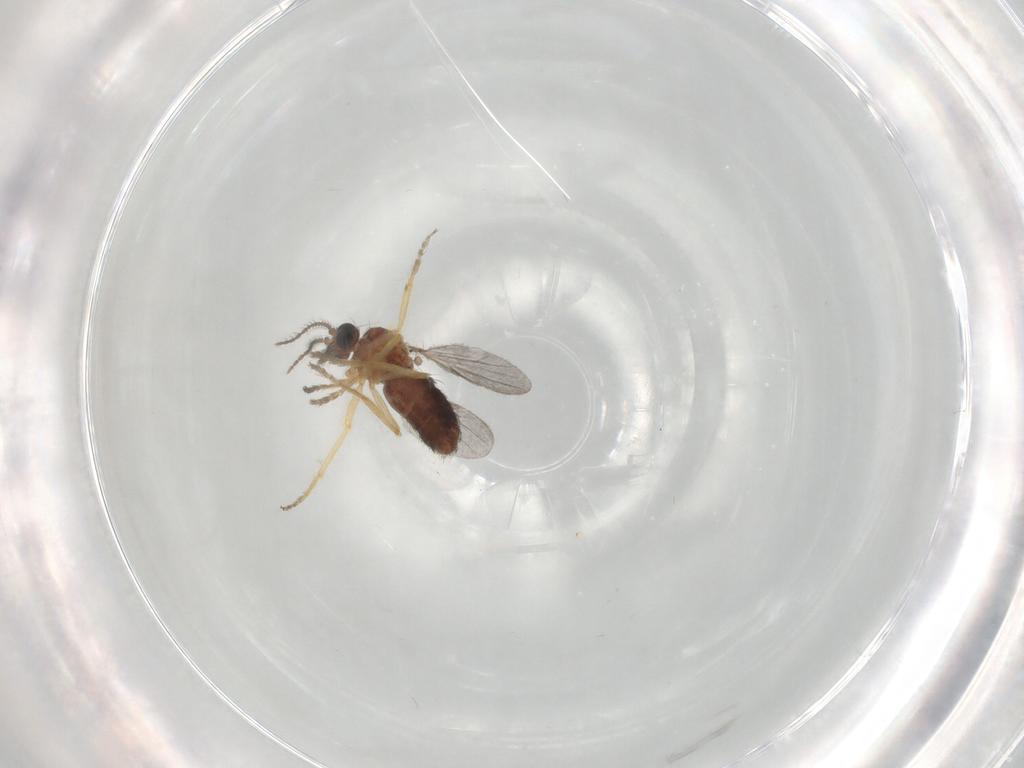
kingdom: Animalia
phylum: Arthropoda
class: Insecta
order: Diptera
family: Ceratopogonidae
